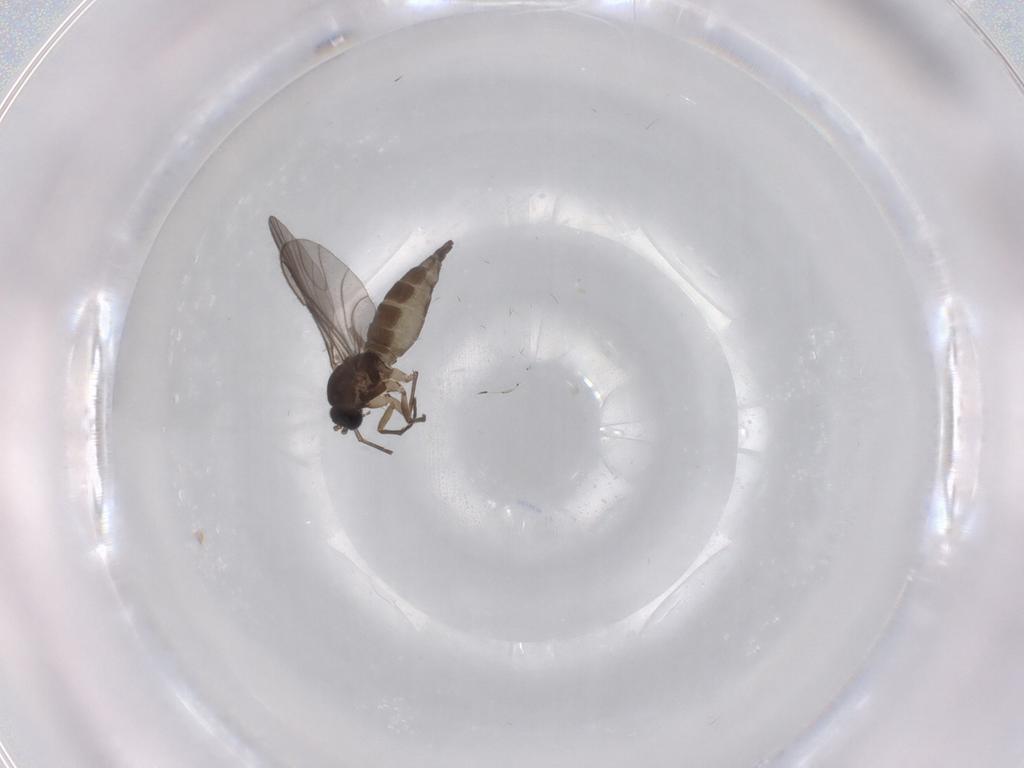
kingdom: Animalia
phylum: Arthropoda
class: Insecta
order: Diptera
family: Sciaridae
